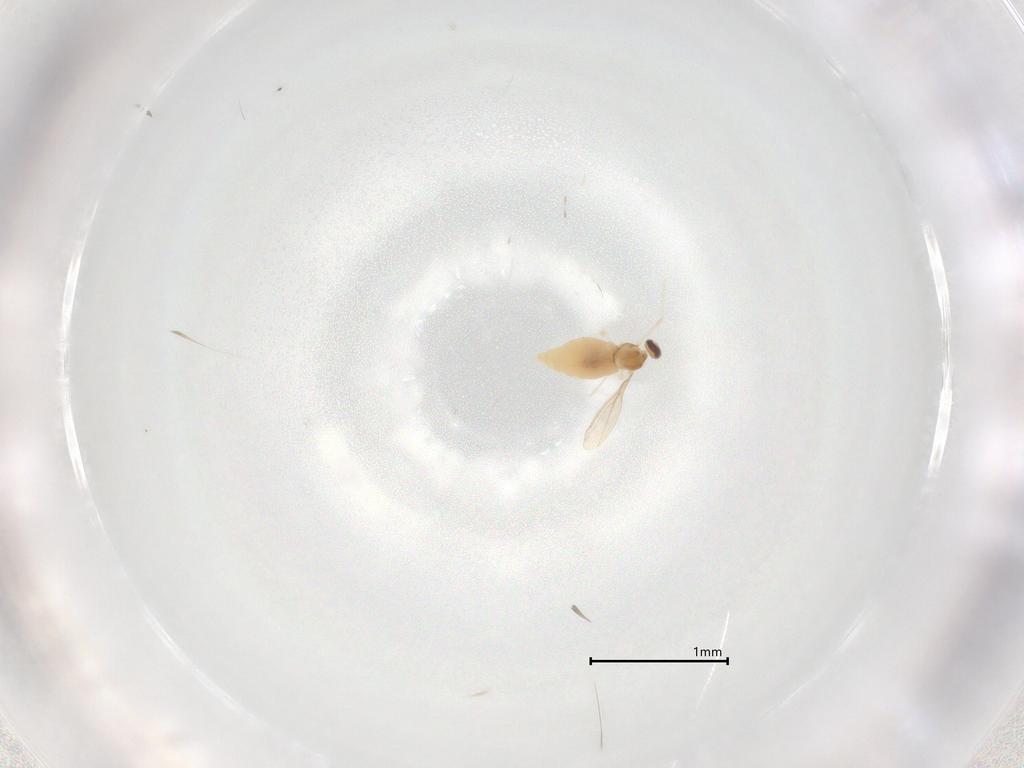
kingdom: Animalia
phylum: Arthropoda
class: Insecta
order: Diptera
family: Cecidomyiidae
